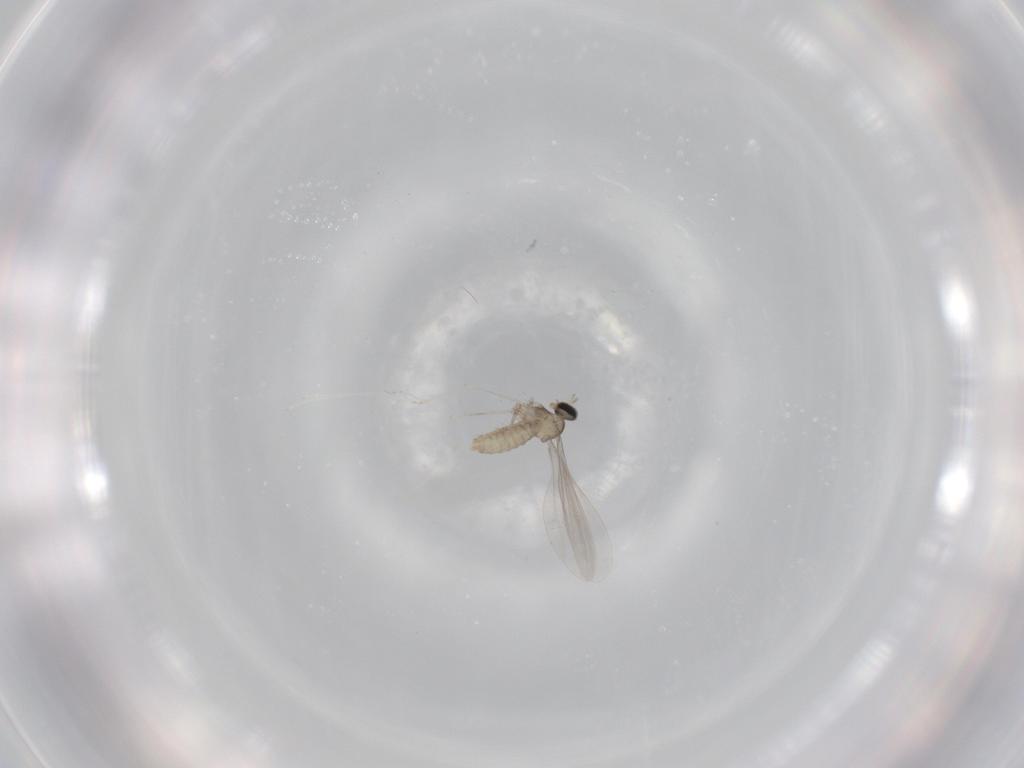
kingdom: Animalia
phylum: Arthropoda
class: Insecta
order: Diptera
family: Cecidomyiidae
